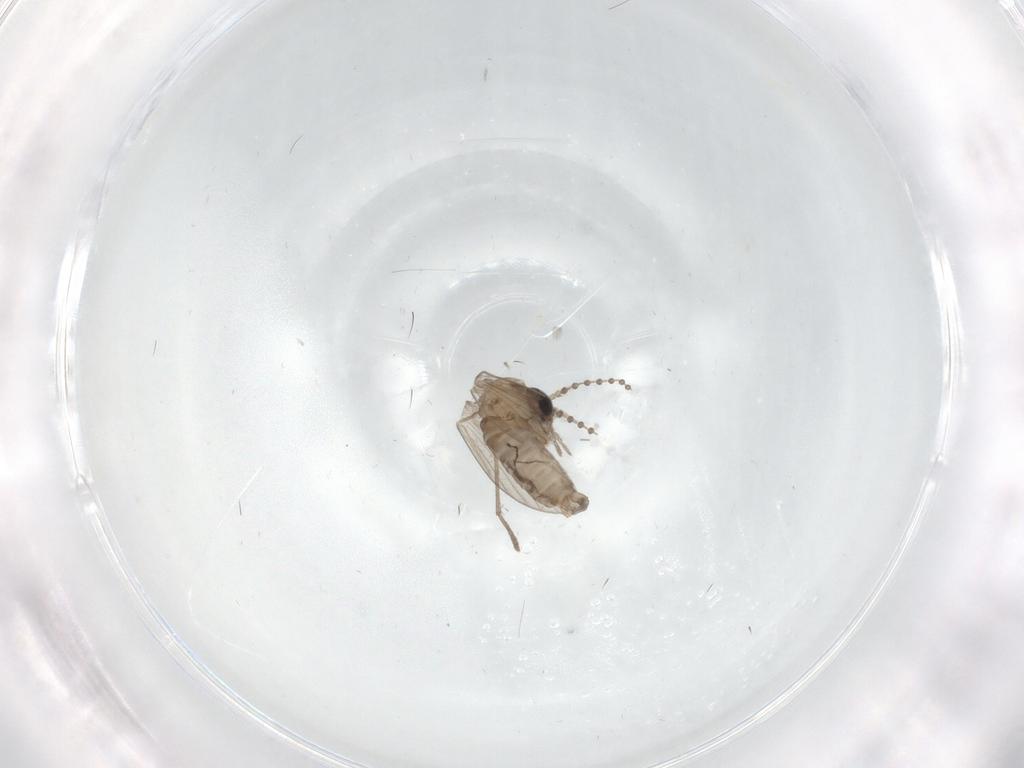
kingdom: Animalia
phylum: Arthropoda
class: Insecta
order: Diptera
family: Psychodidae
